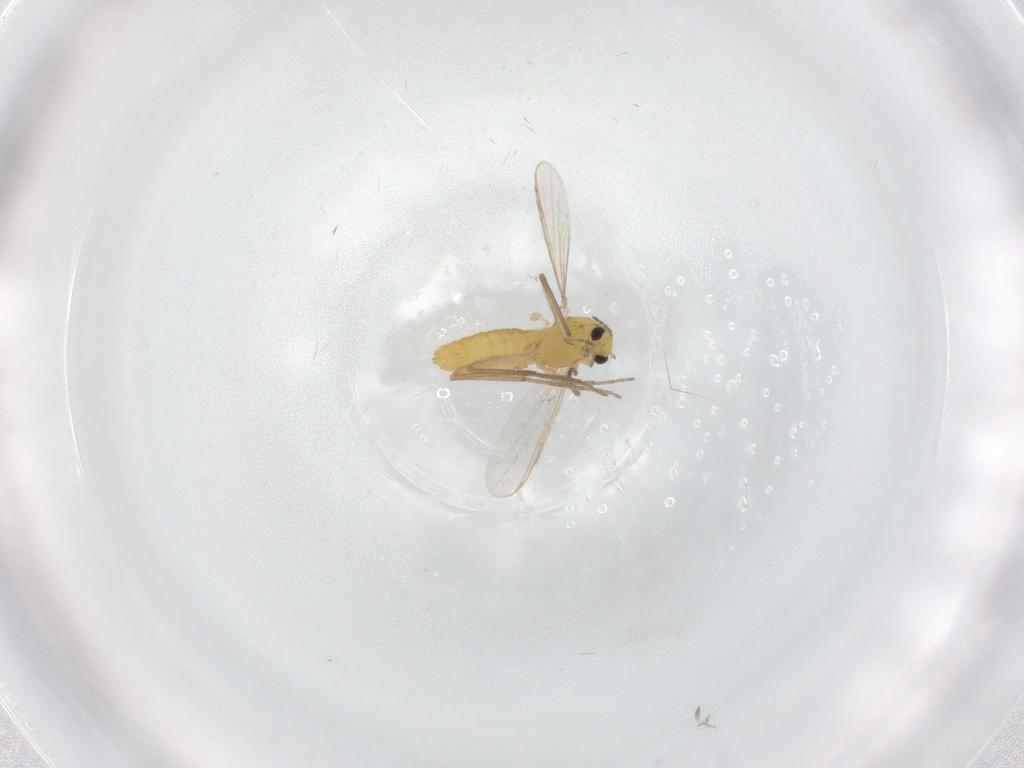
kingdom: Animalia
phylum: Arthropoda
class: Insecta
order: Diptera
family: Chironomidae
